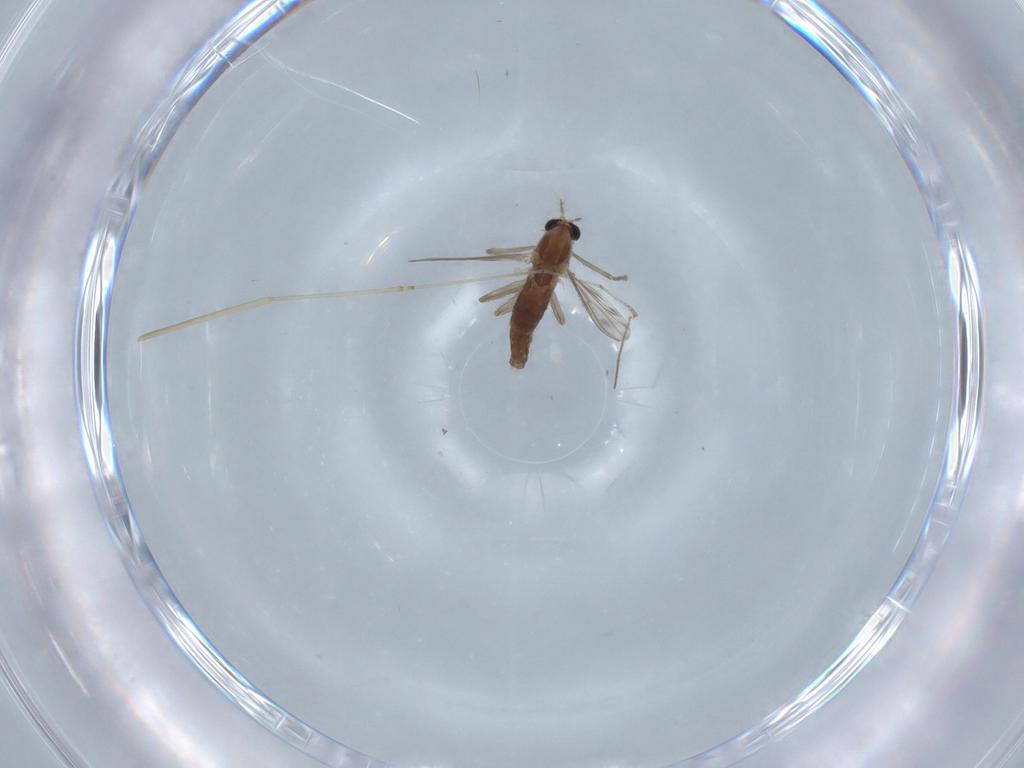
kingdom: Animalia
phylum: Arthropoda
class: Insecta
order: Diptera
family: Chironomidae
